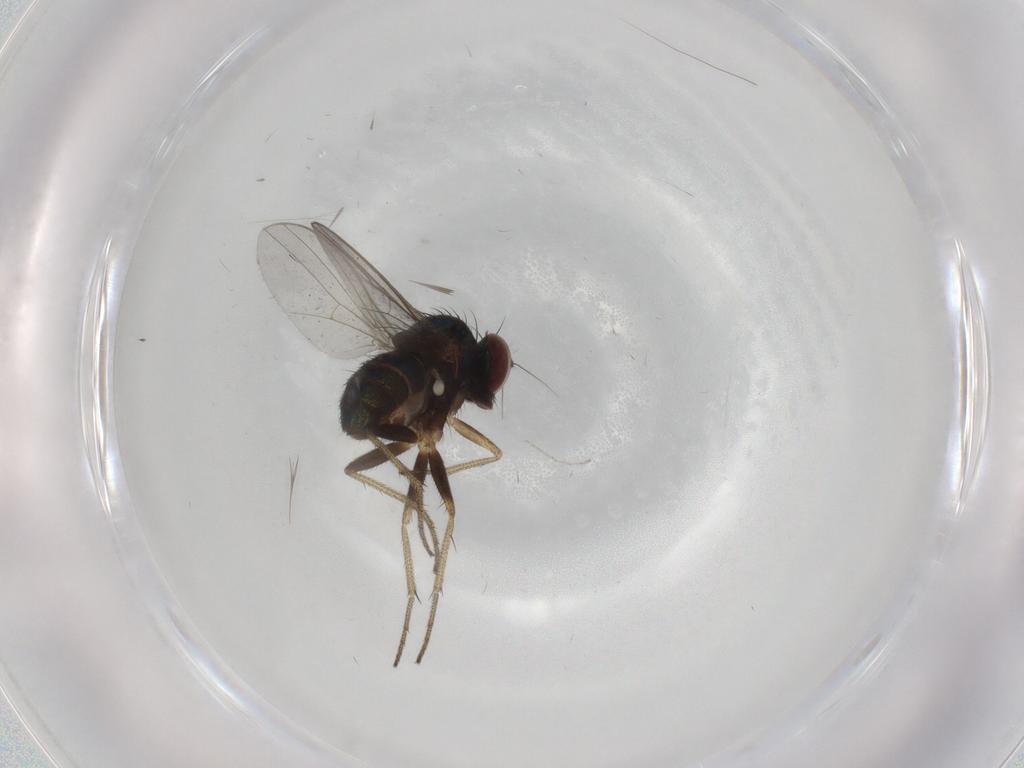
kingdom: Animalia
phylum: Arthropoda
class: Insecta
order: Diptera
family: Dolichopodidae
